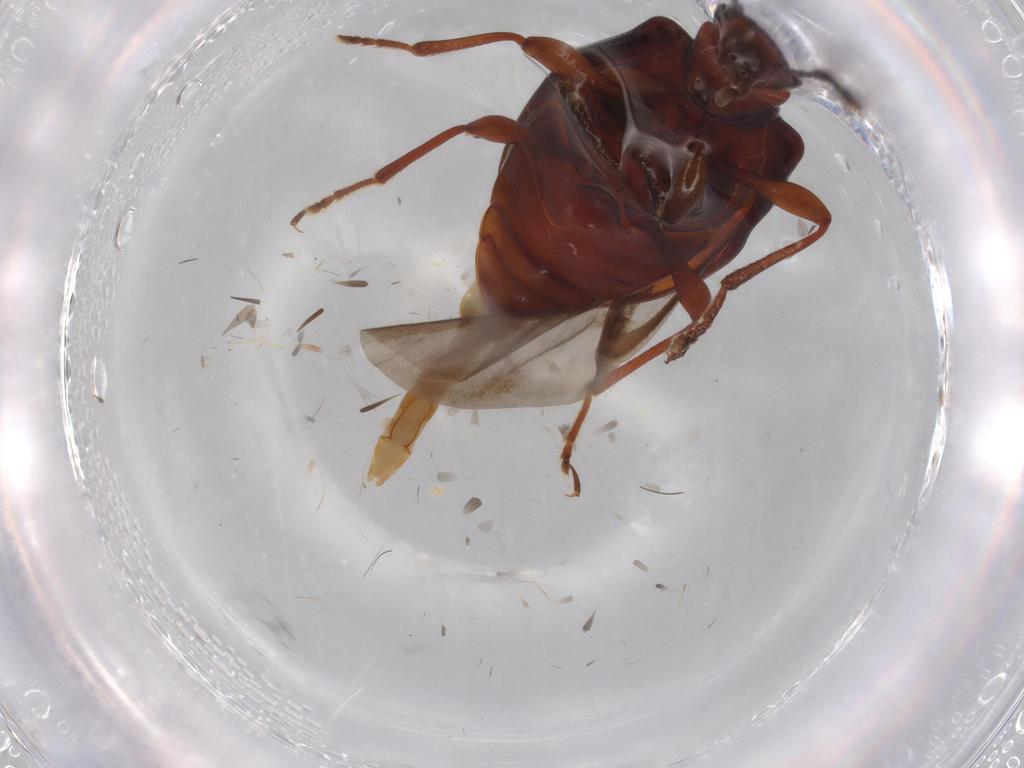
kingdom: Animalia
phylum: Arthropoda
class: Insecta
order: Coleoptera
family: Tenebrionidae
